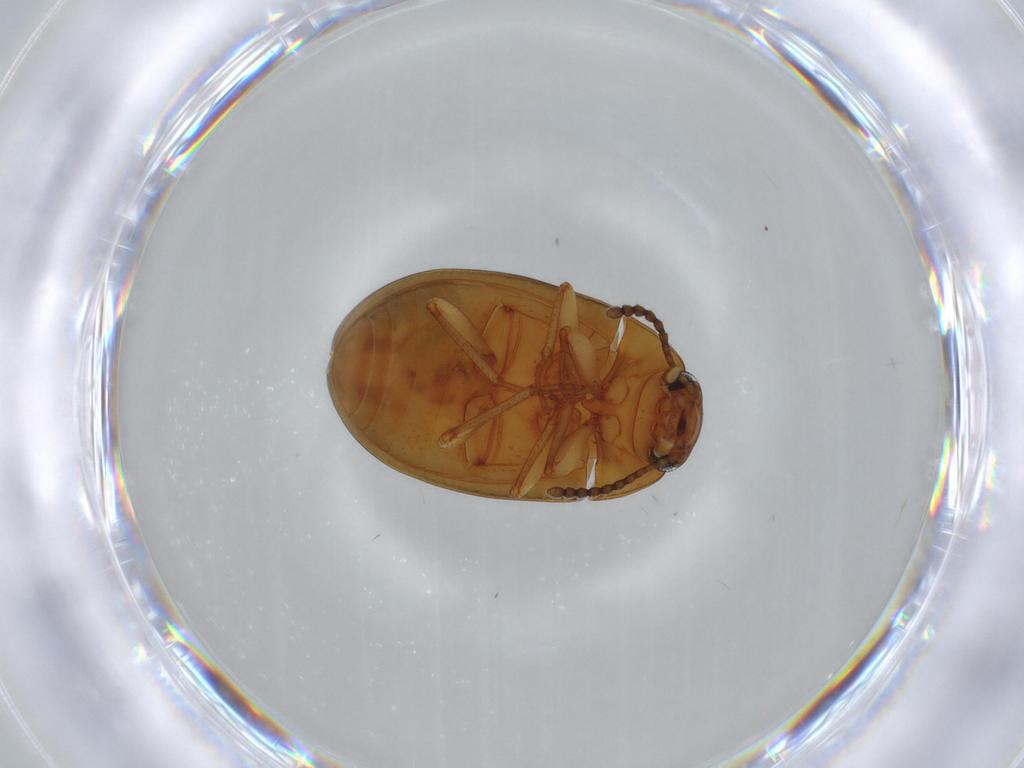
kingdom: Animalia
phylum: Arthropoda
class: Insecta
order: Coleoptera
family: Chrysomelidae
